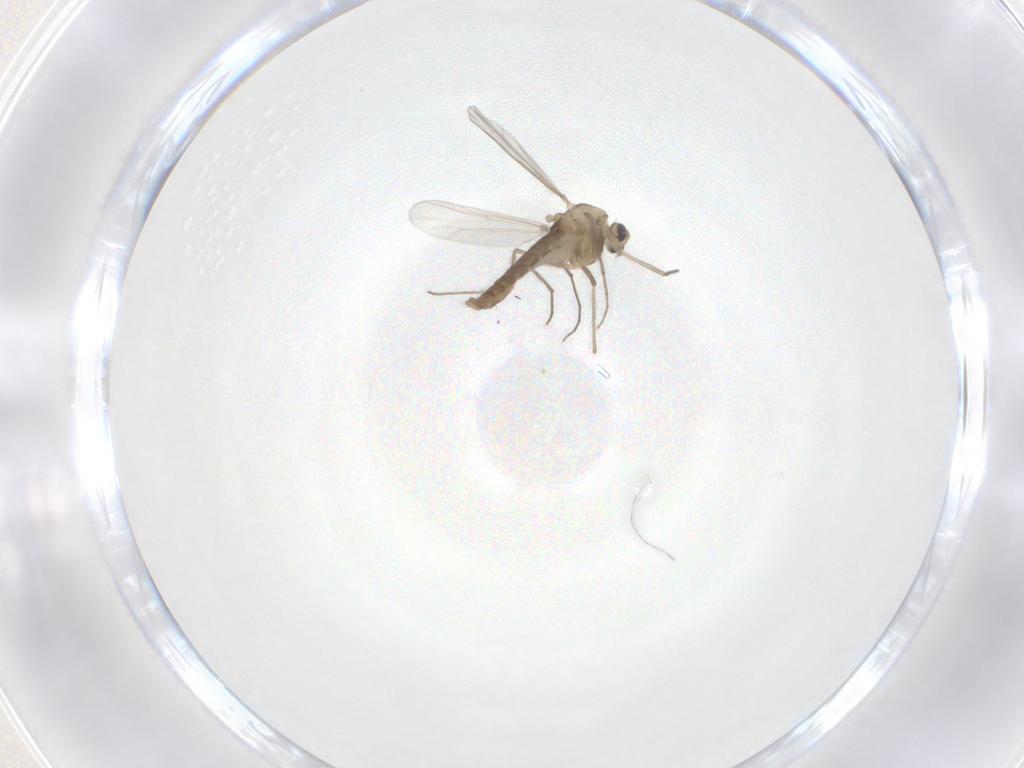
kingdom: Animalia
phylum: Arthropoda
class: Insecta
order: Diptera
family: Chironomidae
